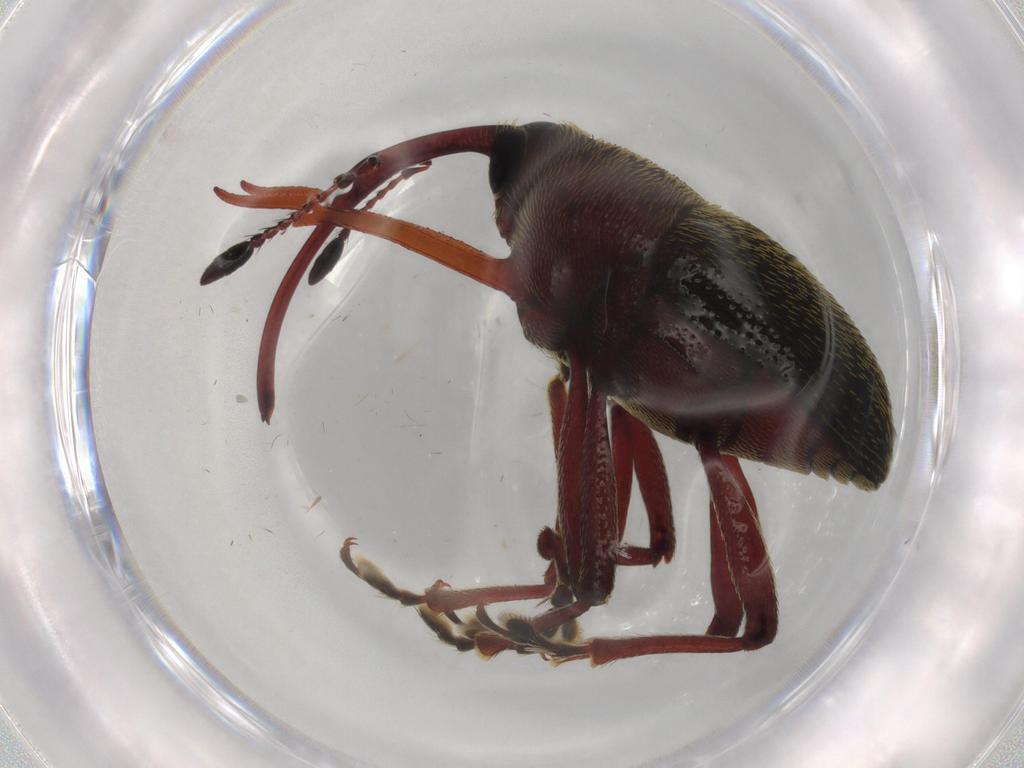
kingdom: Animalia
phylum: Arthropoda
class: Insecta
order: Coleoptera
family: Curculionidae
